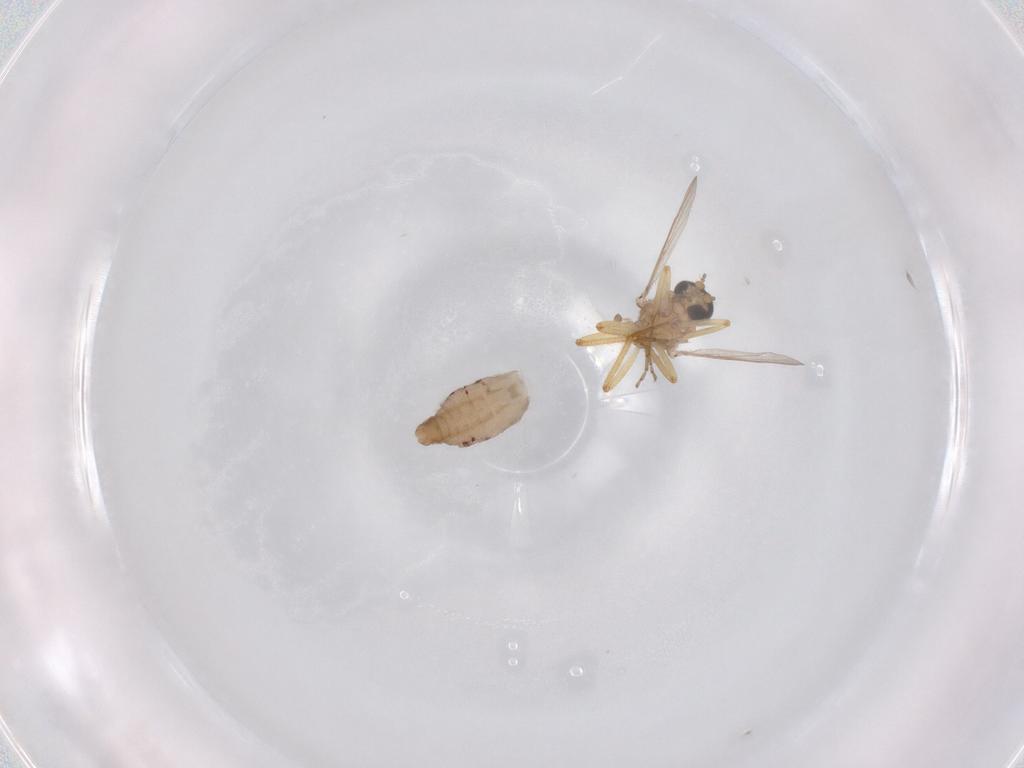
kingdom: Animalia
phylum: Arthropoda
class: Insecta
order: Diptera
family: Ceratopogonidae
